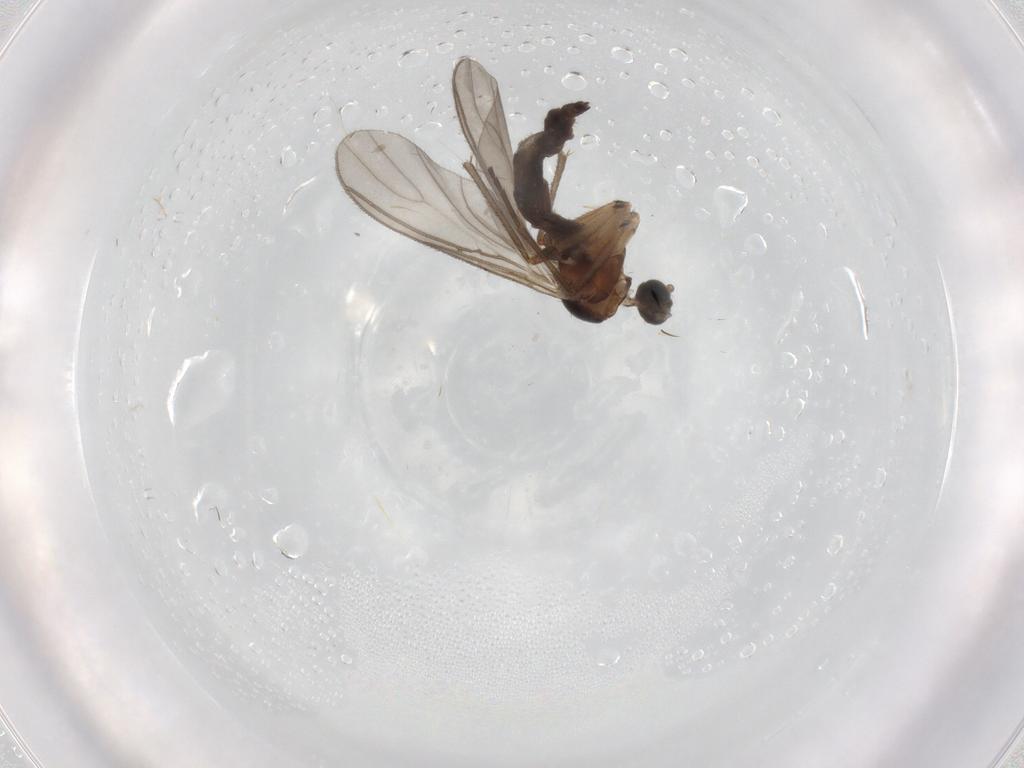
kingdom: Animalia
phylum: Arthropoda
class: Insecta
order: Diptera
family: Sciaridae
